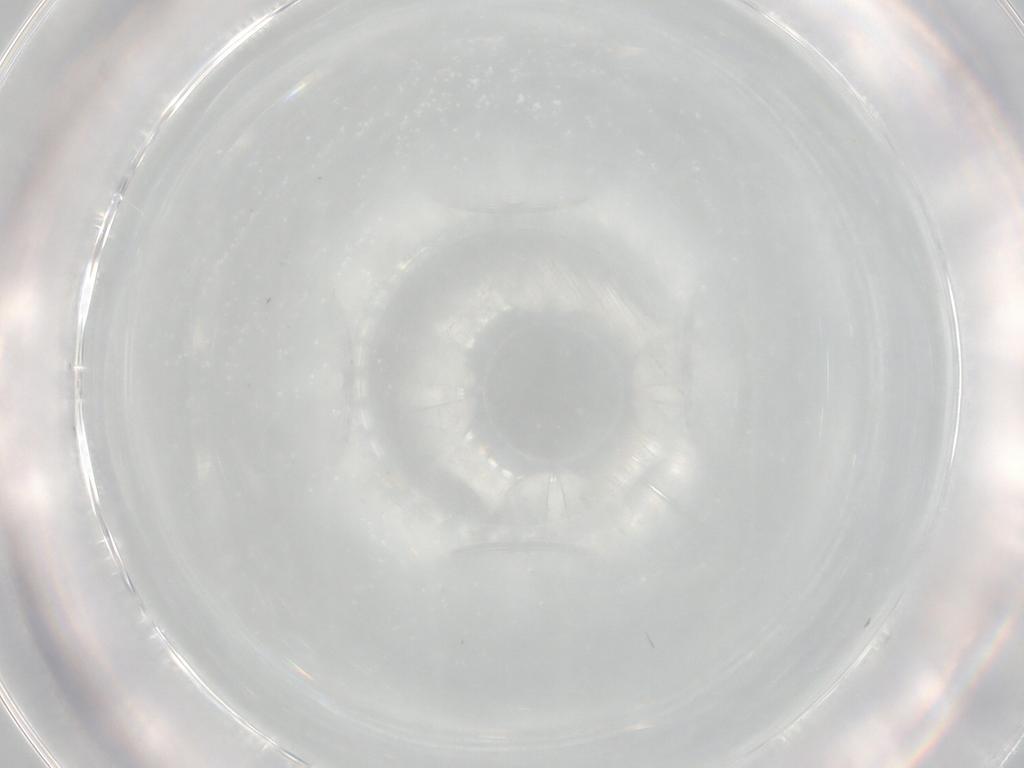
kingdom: Animalia
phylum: Arthropoda
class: Insecta
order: Diptera
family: Cecidomyiidae
